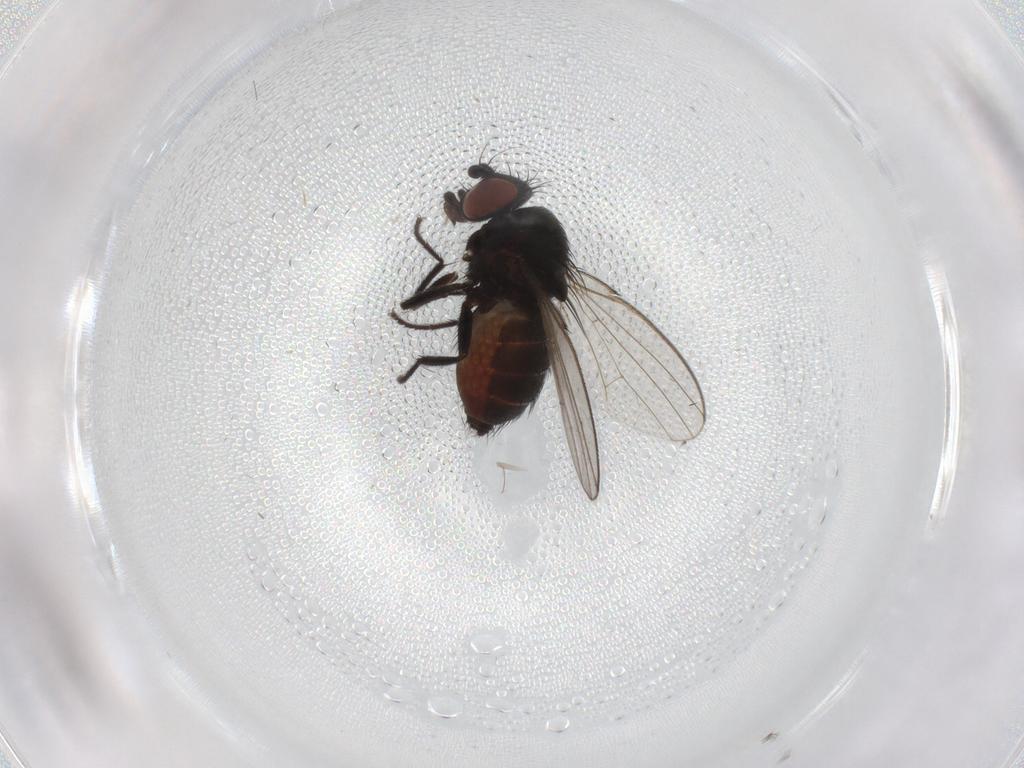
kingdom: Animalia
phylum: Arthropoda
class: Insecta
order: Diptera
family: Milichiidae
